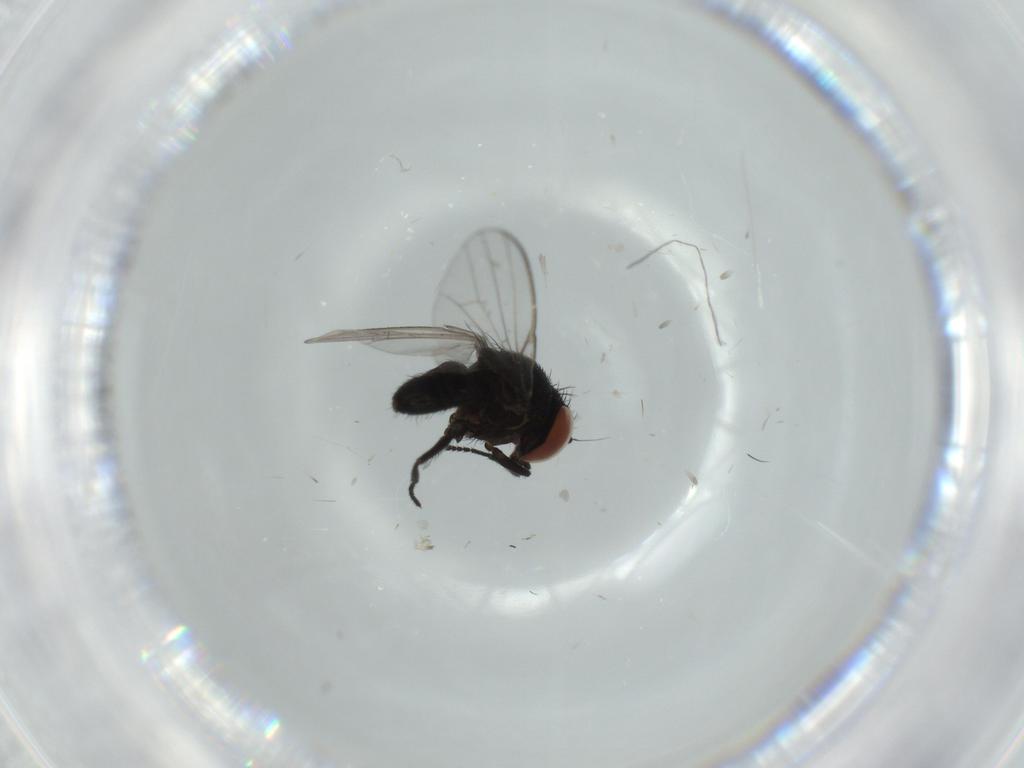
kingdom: Animalia
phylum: Arthropoda
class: Insecta
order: Diptera
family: Milichiidae
